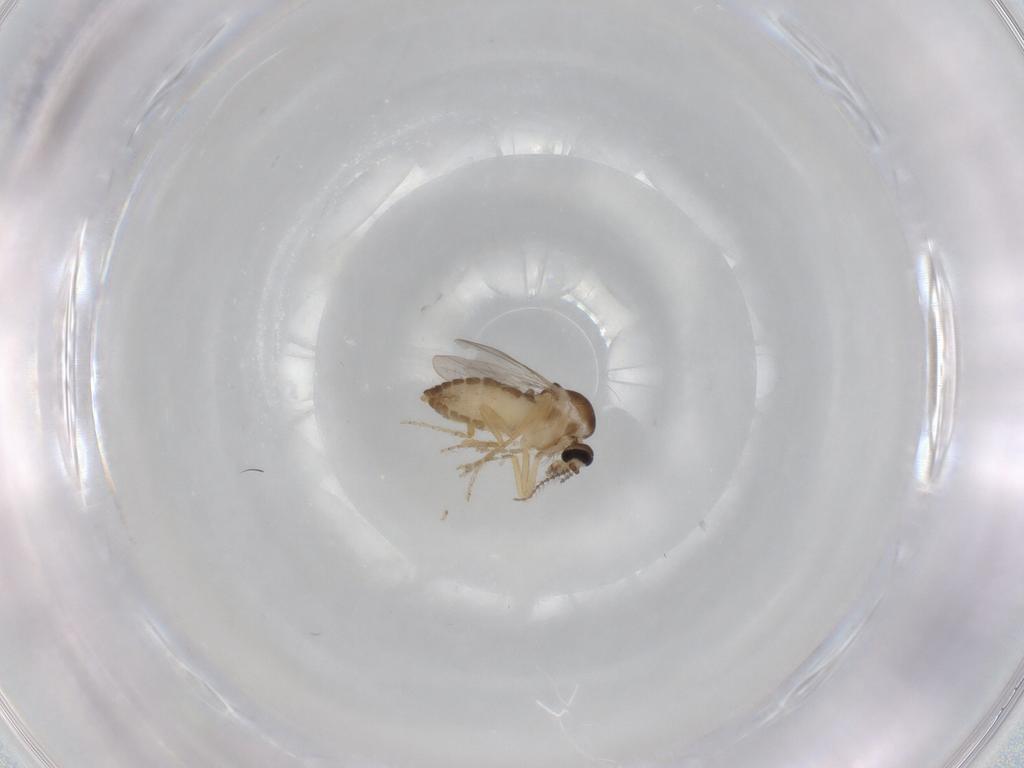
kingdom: Animalia
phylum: Arthropoda
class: Insecta
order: Diptera
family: Ceratopogonidae
